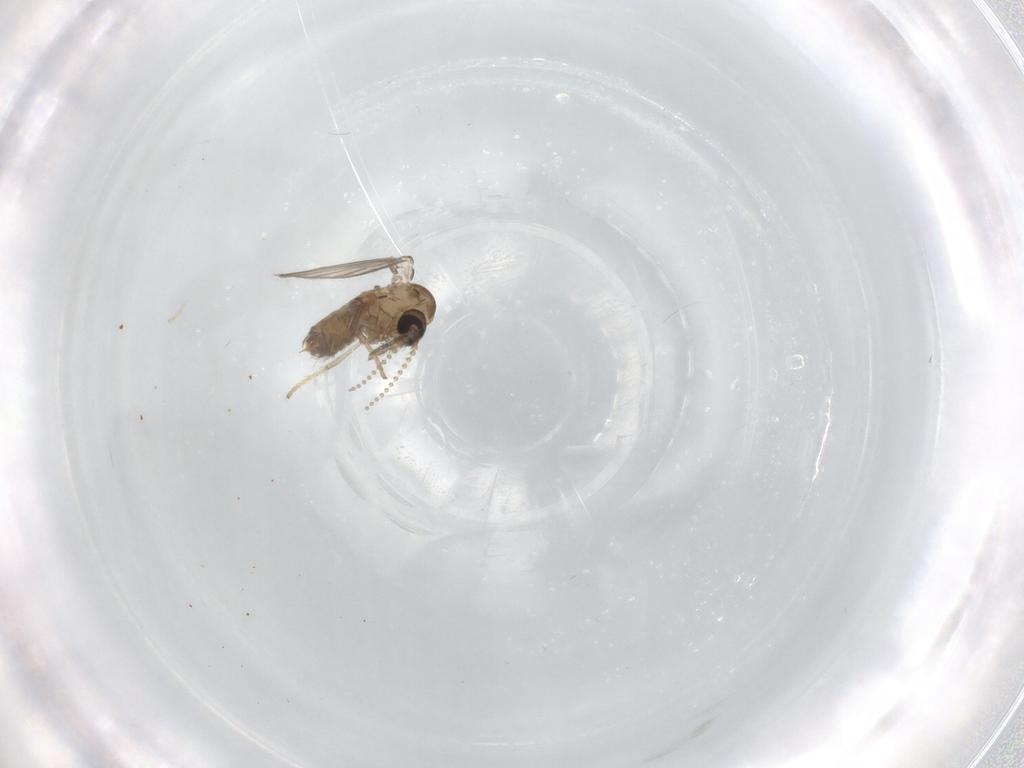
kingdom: Animalia
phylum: Arthropoda
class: Insecta
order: Diptera
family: Psychodidae
